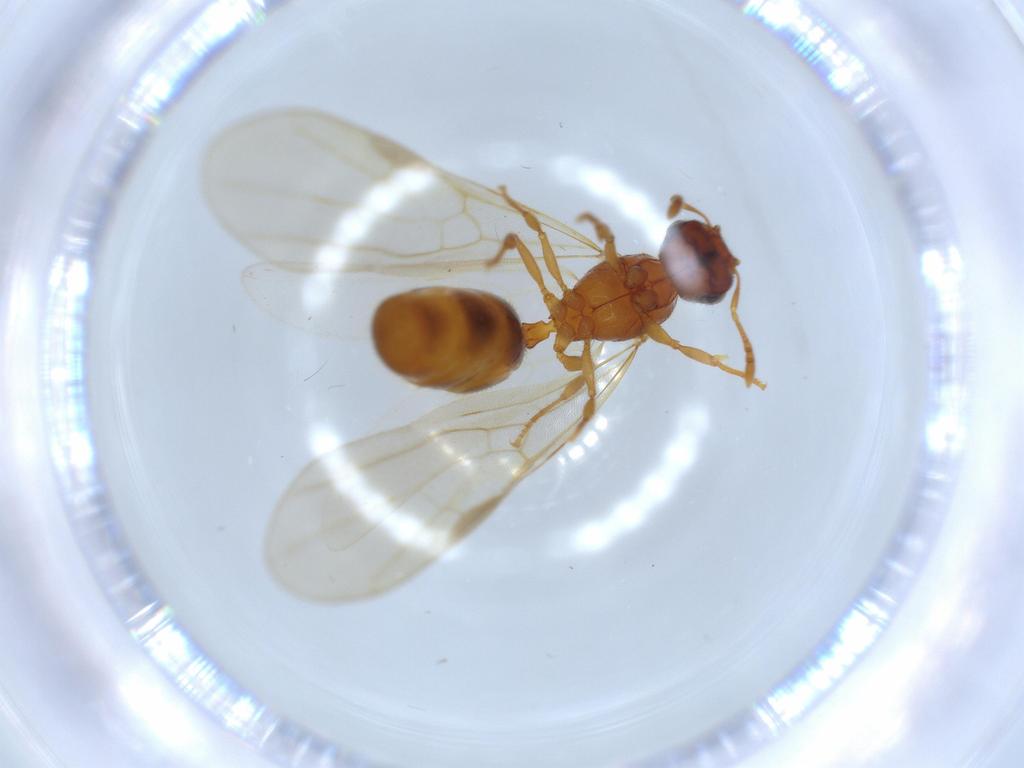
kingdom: Animalia
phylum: Arthropoda
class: Insecta
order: Hymenoptera
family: Formicidae
